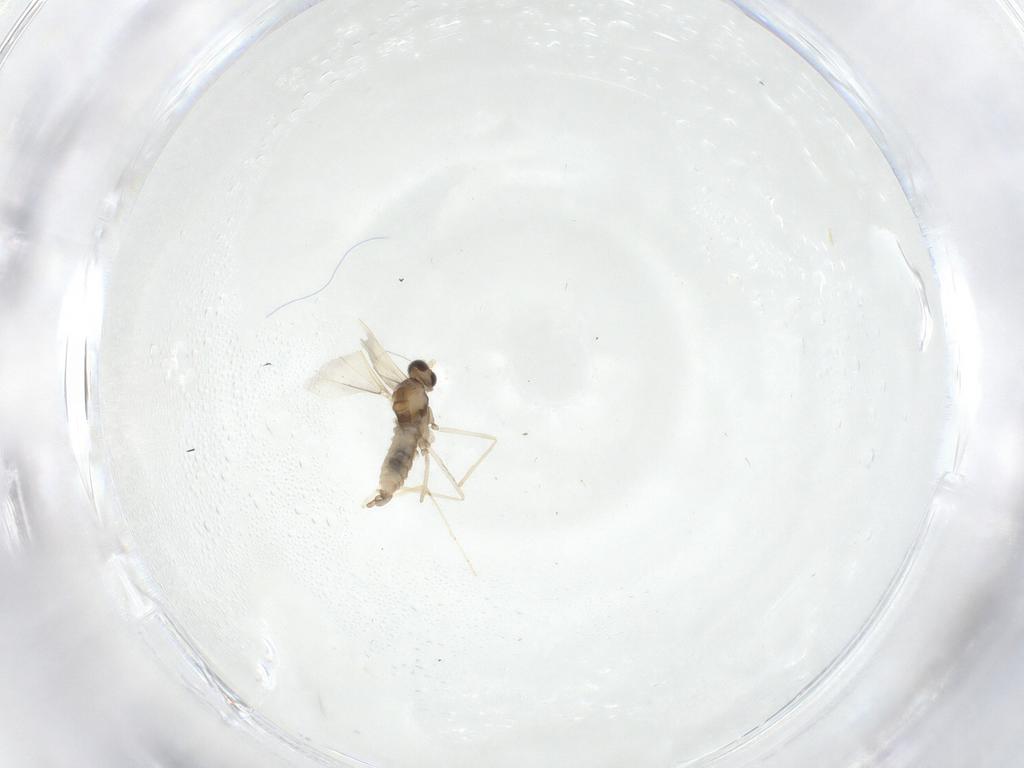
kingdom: Animalia
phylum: Arthropoda
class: Insecta
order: Diptera
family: Cecidomyiidae
